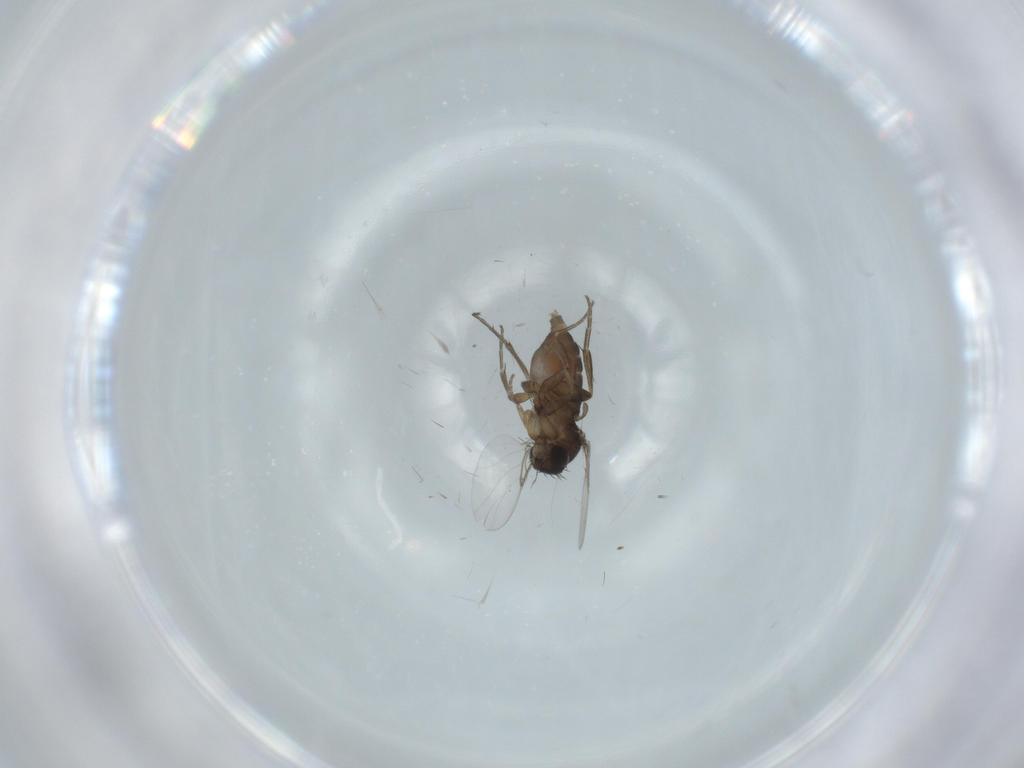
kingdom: Animalia
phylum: Arthropoda
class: Insecta
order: Diptera
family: Phoridae
